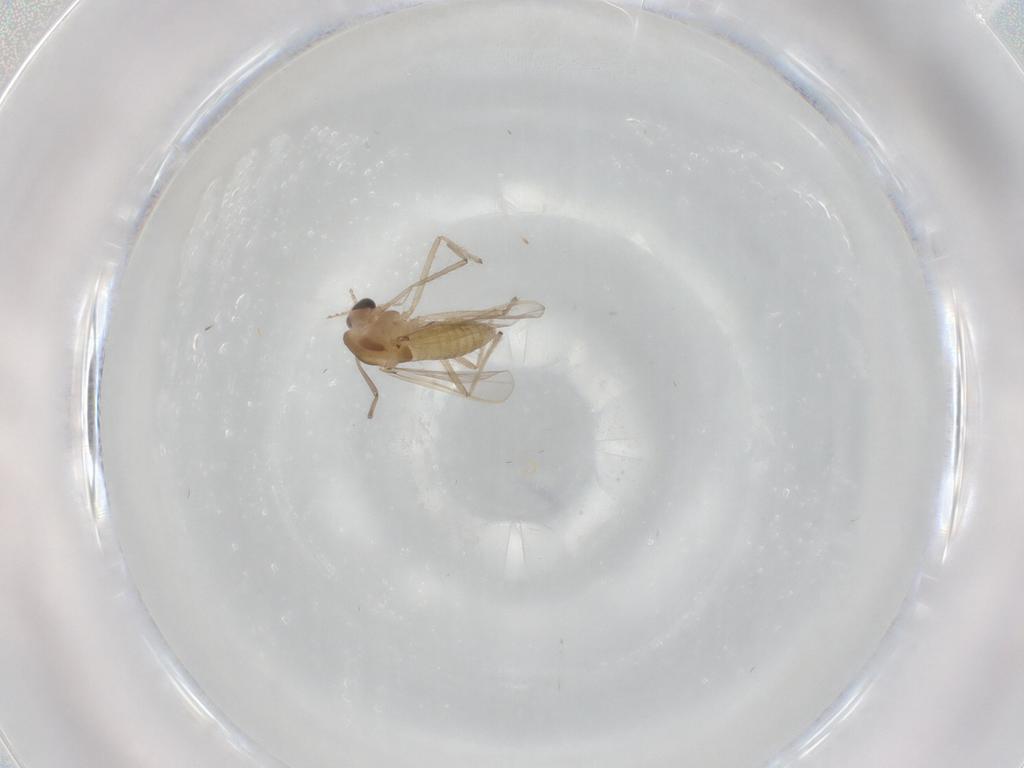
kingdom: Animalia
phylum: Arthropoda
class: Insecta
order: Diptera
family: Chironomidae
